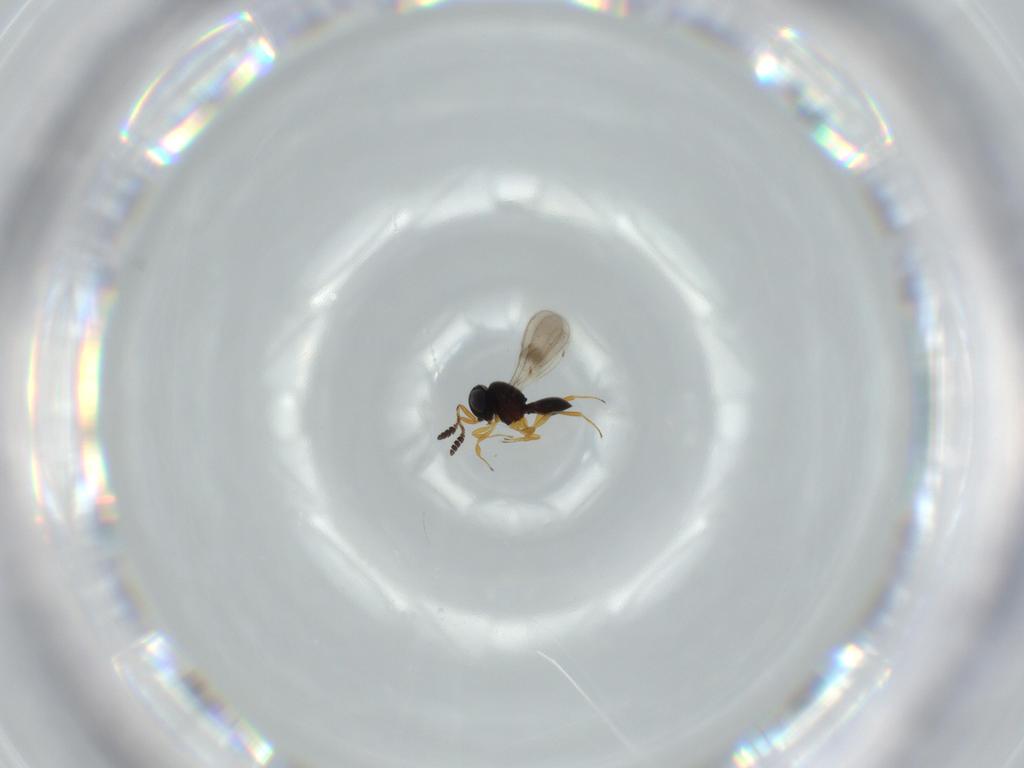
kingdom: Animalia
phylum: Arthropoda
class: Insecta
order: Hymenoptera
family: Scelionidae
